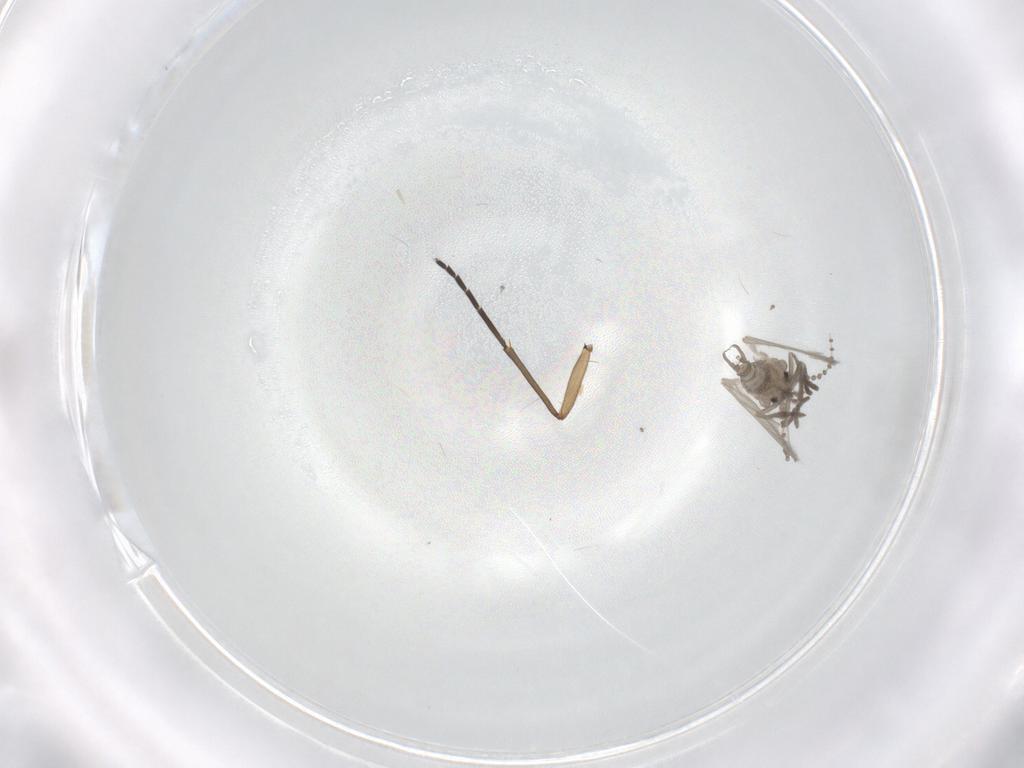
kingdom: Animalia
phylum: Arthropoda
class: Insecta
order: Diptera
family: Psychodidae
